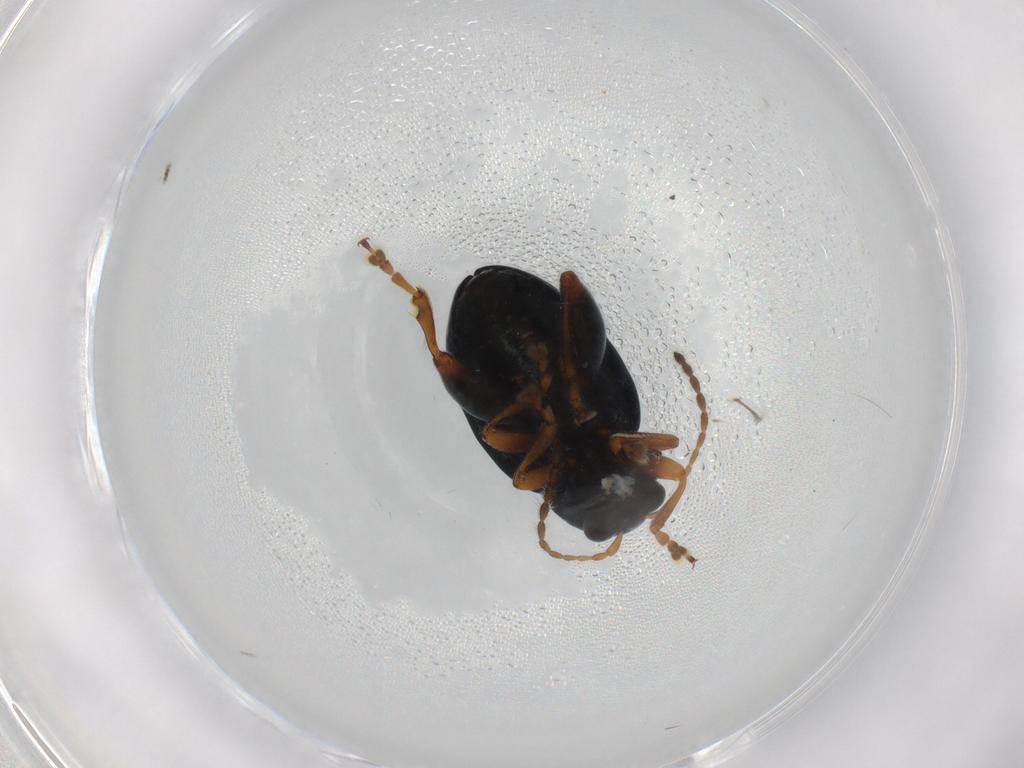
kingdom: Animalia
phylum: Arthropoda
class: Insecta
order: Coleoptera
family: Chrysomelidae
